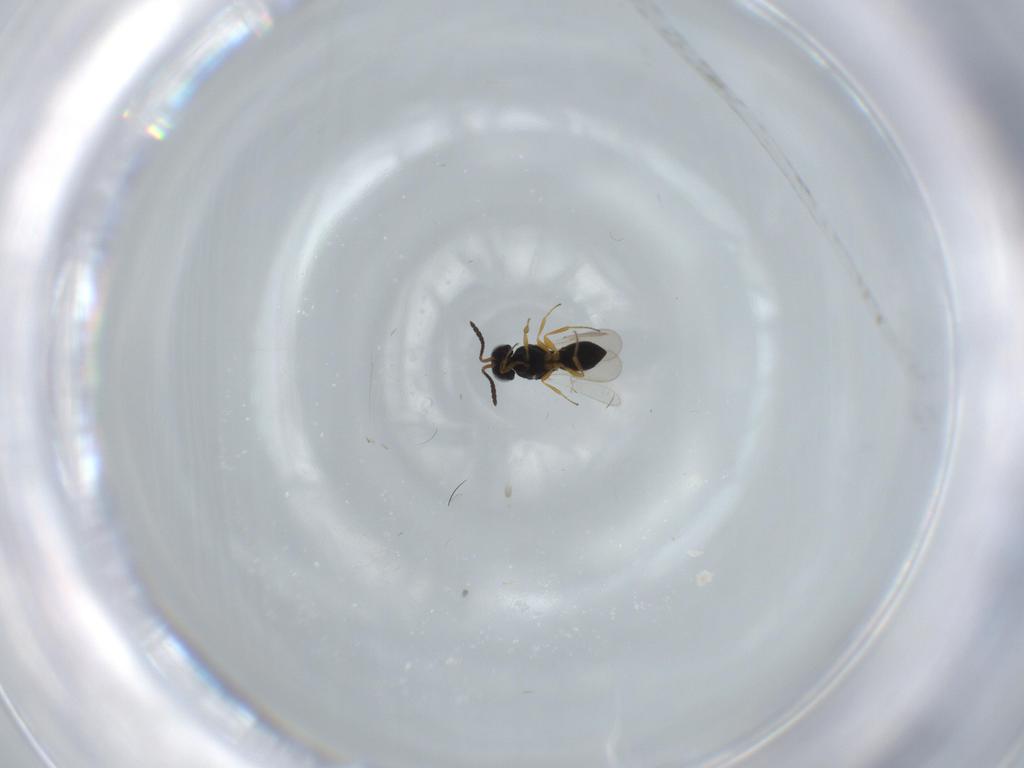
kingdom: Animalia
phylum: Arthropoda
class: Insecta
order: Hymenoptera
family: Scelionidae
